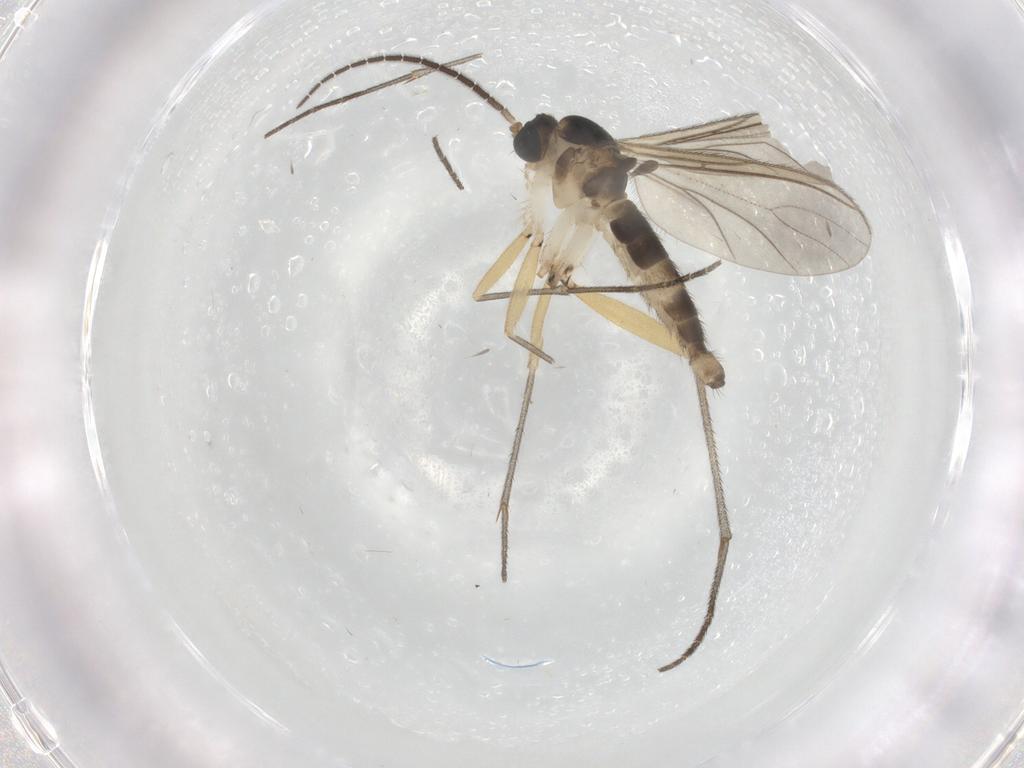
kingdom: Animalia
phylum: Arthropoda
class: Insecta
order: Diptera
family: Sciaridae
